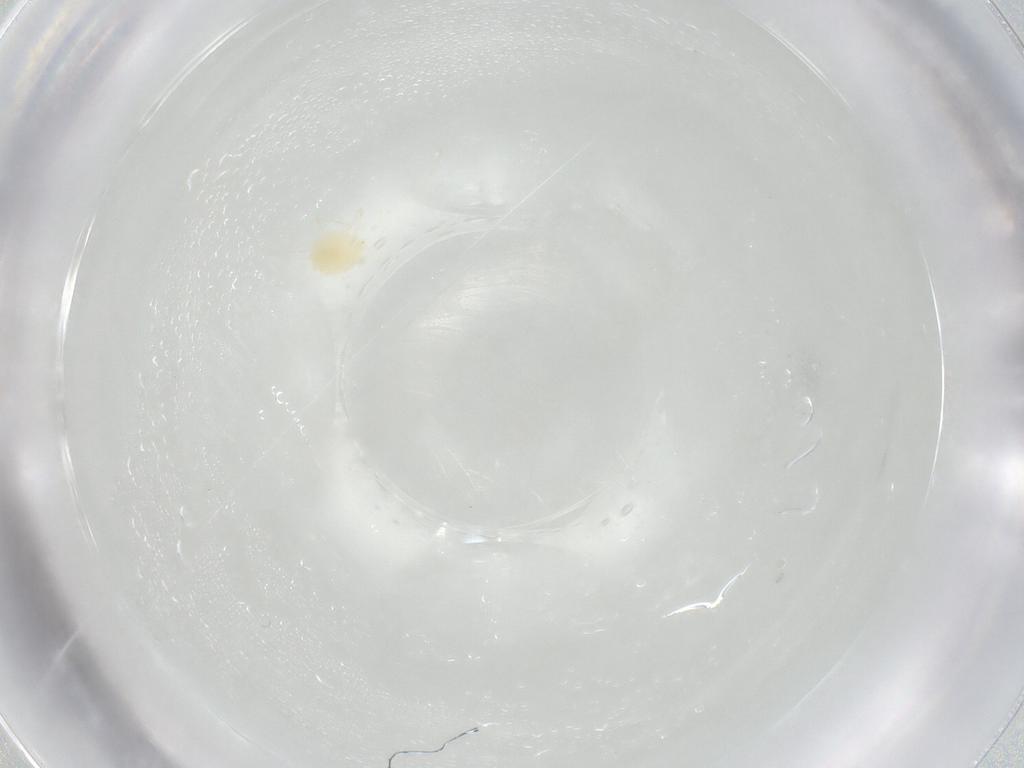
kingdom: Animalia
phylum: Arthropoda
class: Arachnida
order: Trombidiformes
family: Tetranychidae
